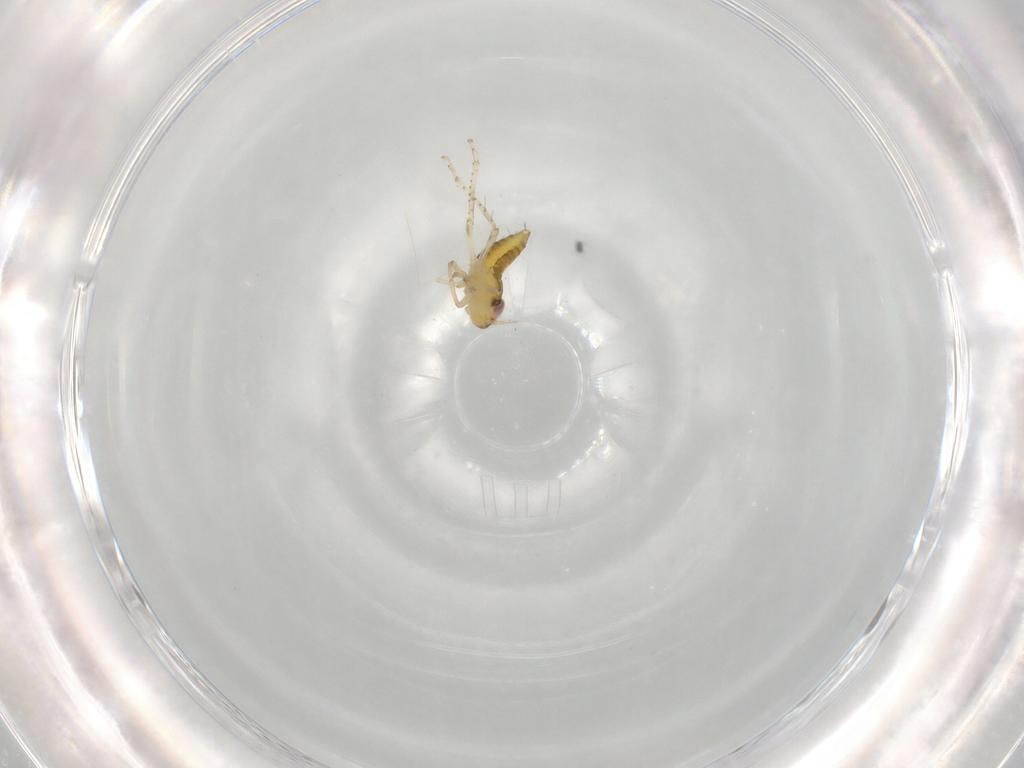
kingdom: Animalia
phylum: Arthropoda
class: Insecta
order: Hemiptera
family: Cicadellidae
